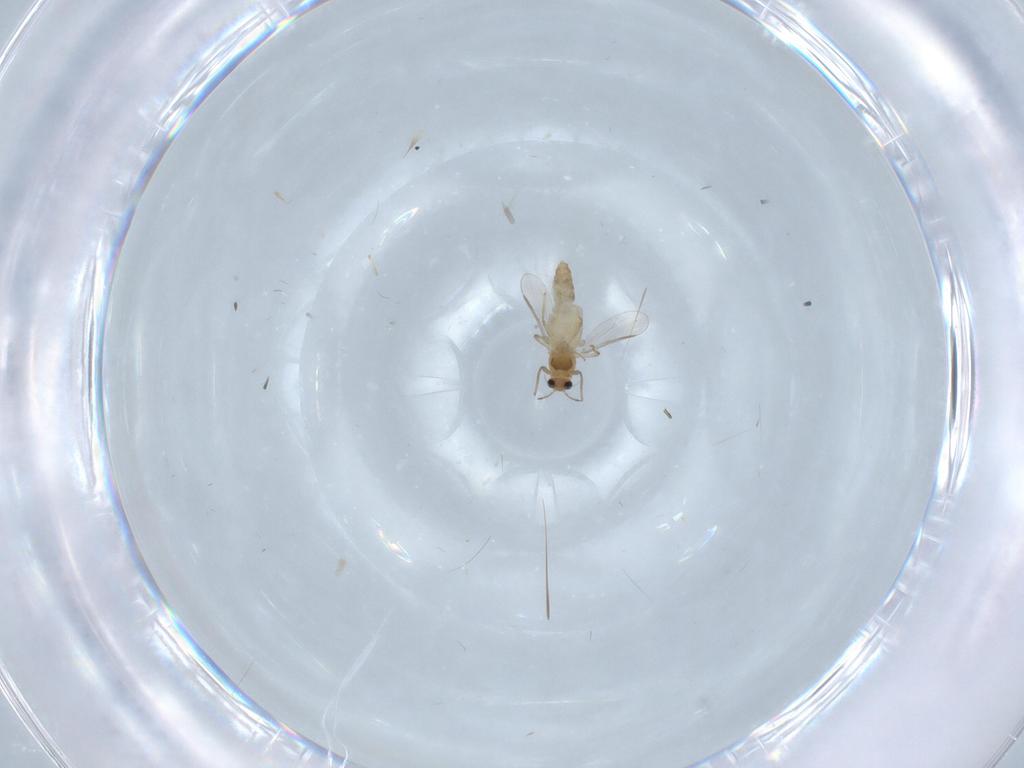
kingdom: Animalia
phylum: Arthropoda
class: Insecta
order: Diptera
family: Chironomidae
